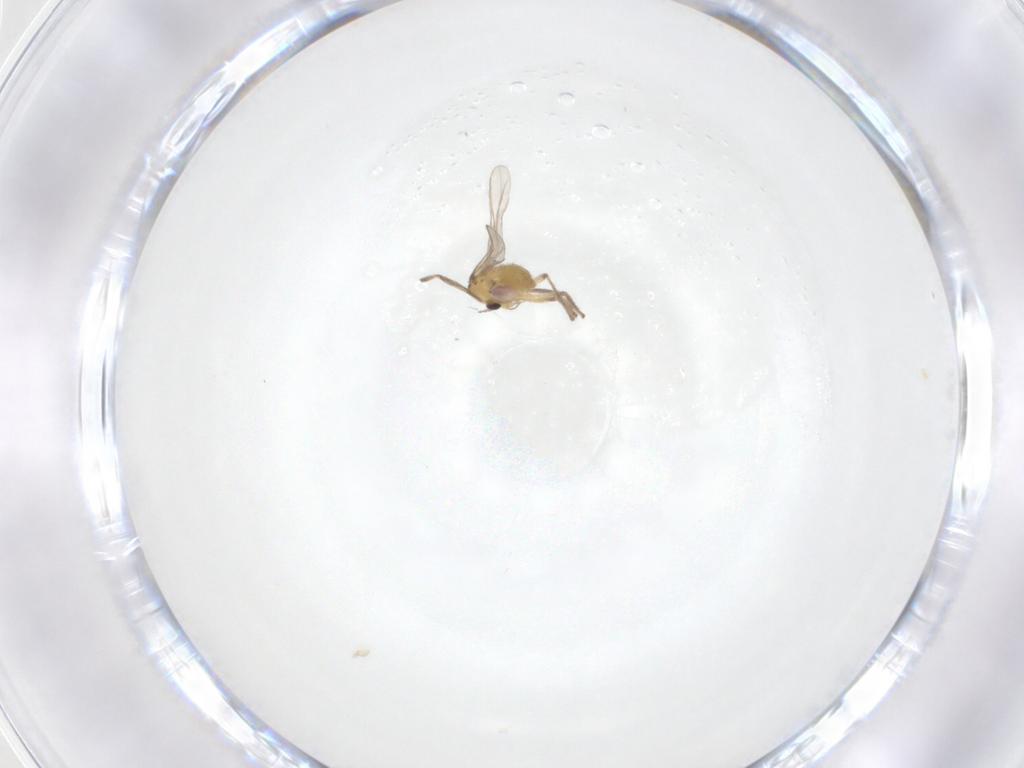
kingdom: Animalia
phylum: Arthropoda
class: Insecta
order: Diptera
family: Chironomidae
